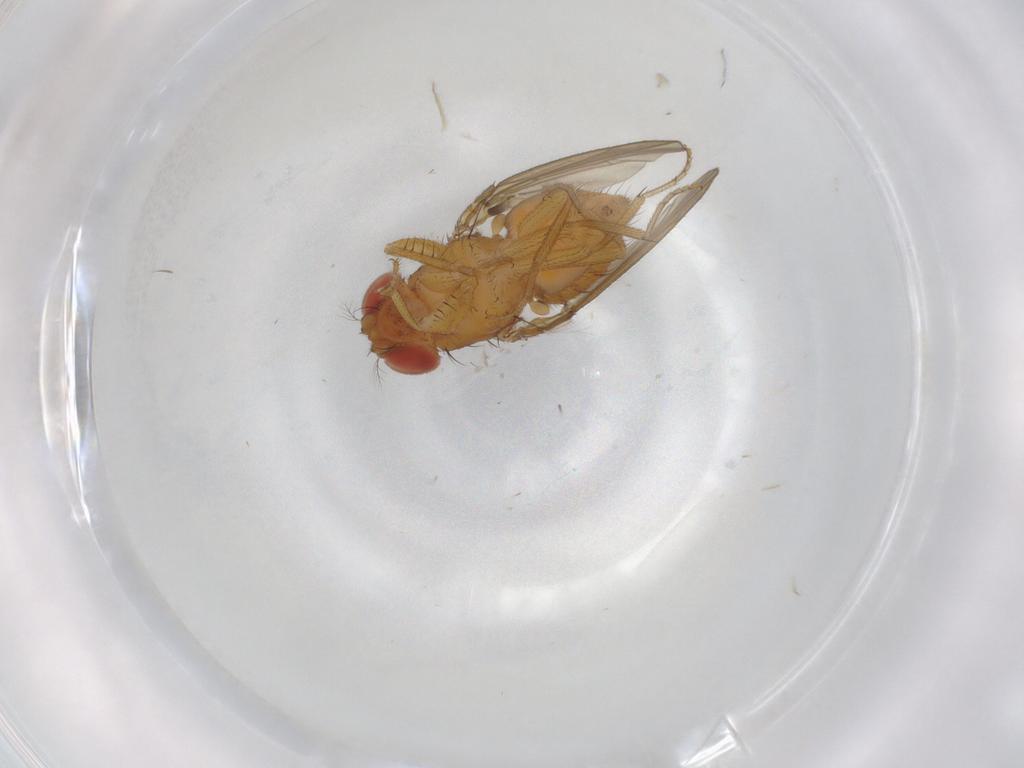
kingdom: Animalia
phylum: Arthropoda
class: Insecta
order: Diptera
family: Drosophilidae
